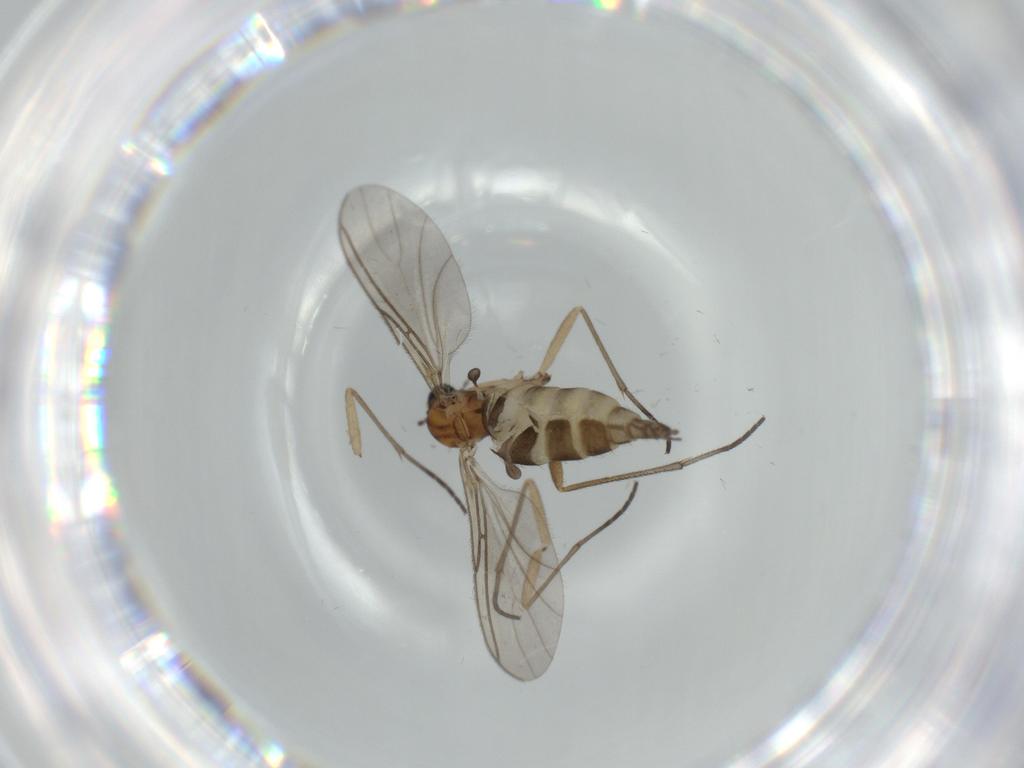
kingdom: Animalia
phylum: Arthropoda
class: Insecta
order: Diptera
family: Sciaridae
